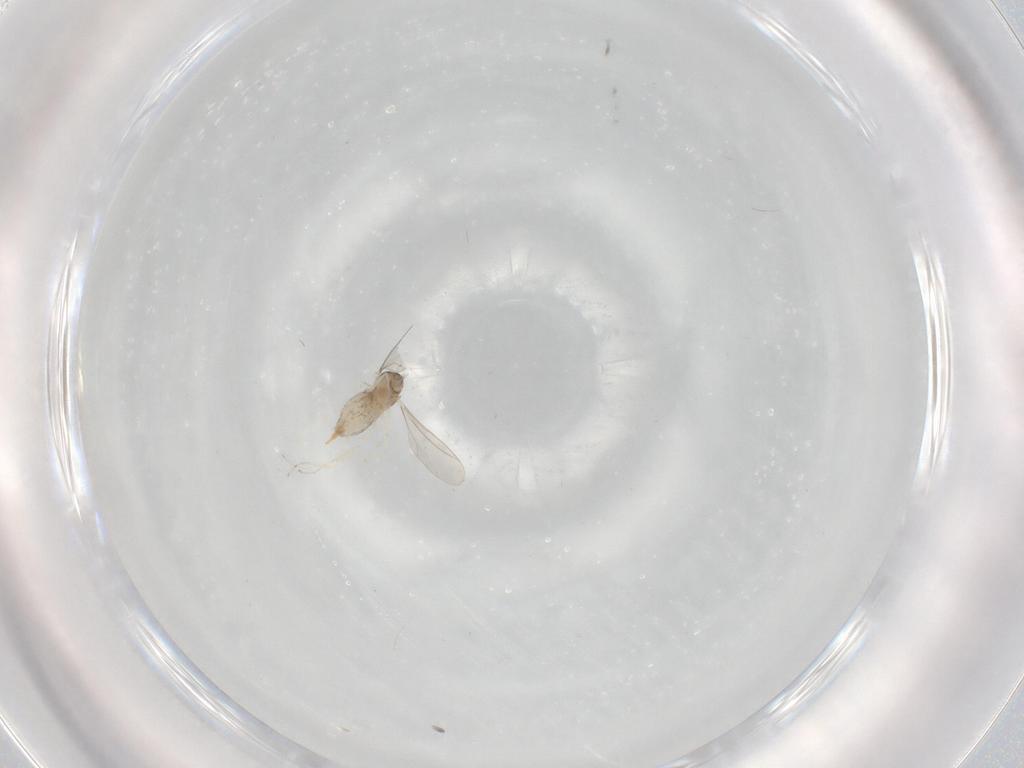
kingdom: Animalia
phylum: Arthropoda
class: Insecta
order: Diptera
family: Cecidomyiidae
